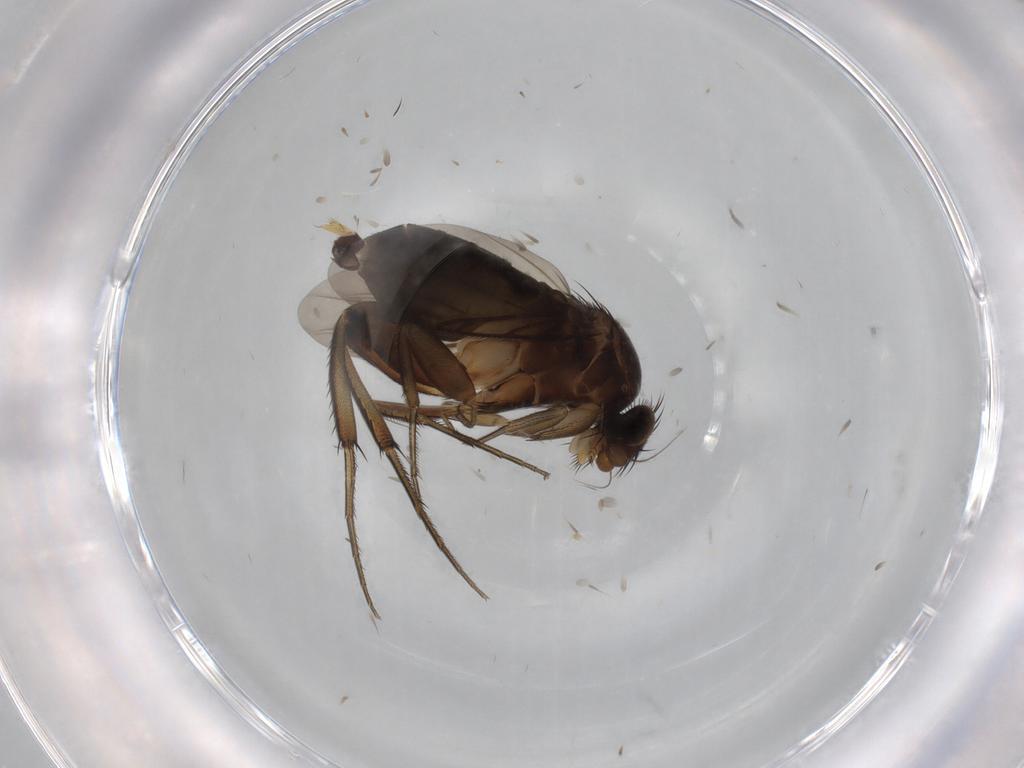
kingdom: Animalia
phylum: Arthropoda
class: Insecta
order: Diptera
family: Phoridae
